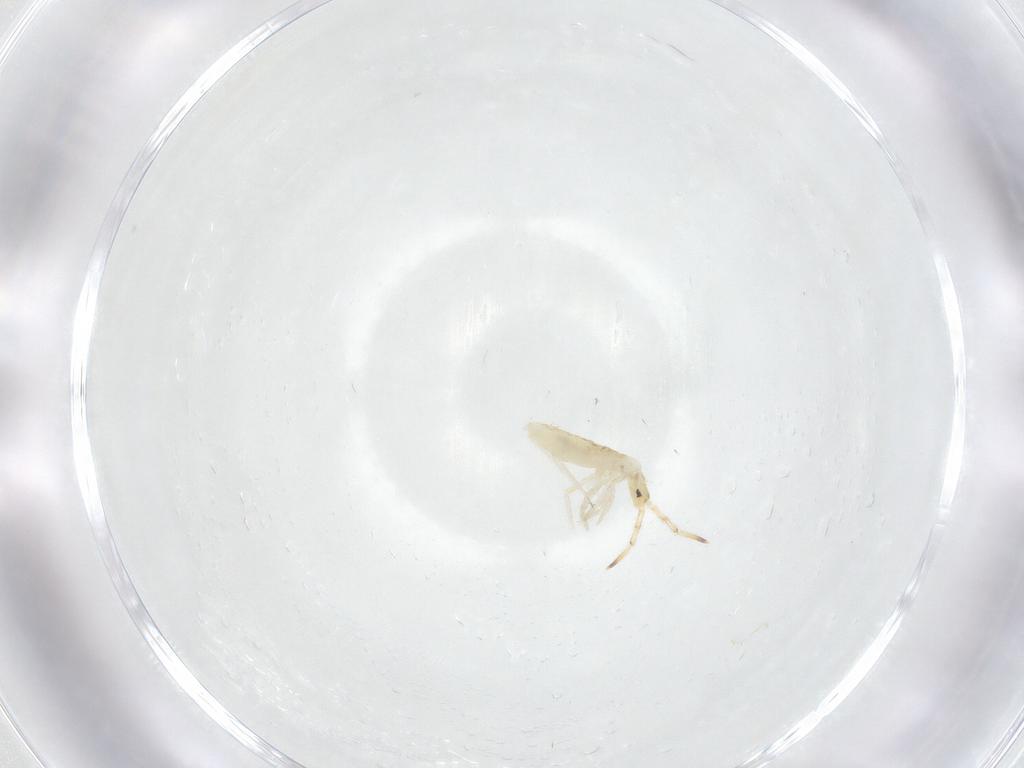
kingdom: Animalia
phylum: Arthropoda
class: Collembola
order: Entomobryomorpha
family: Entomobryidae
